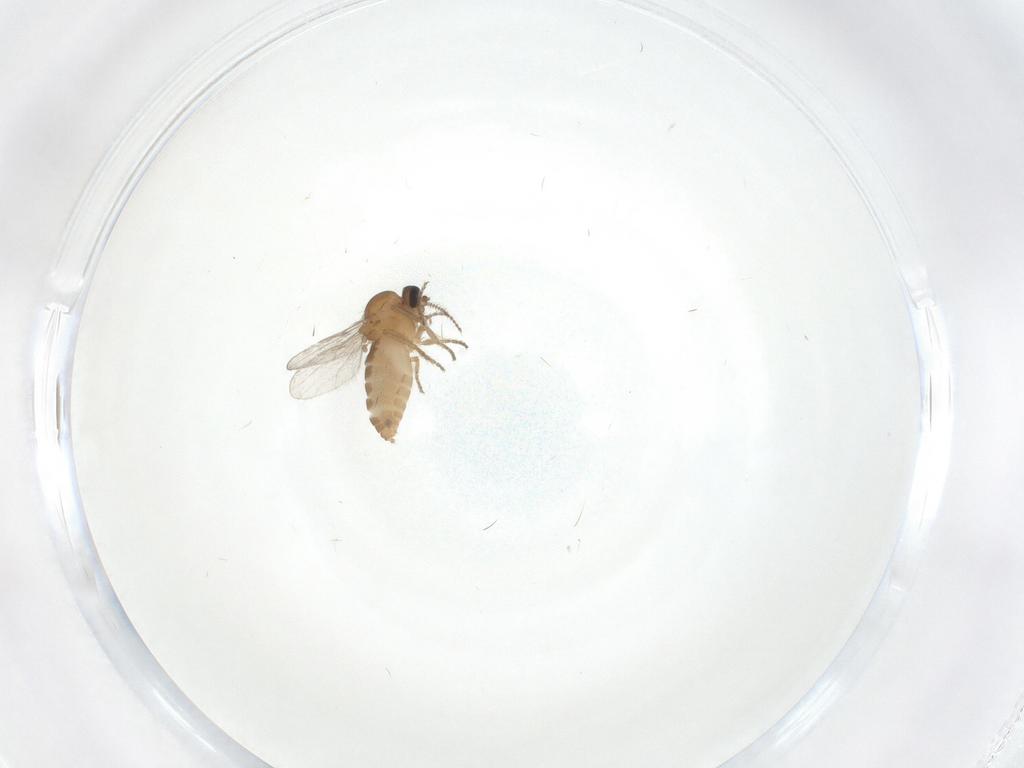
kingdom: Animalia
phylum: Arthropoda
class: Insecta
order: Diptera
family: Ceratopogonidae
